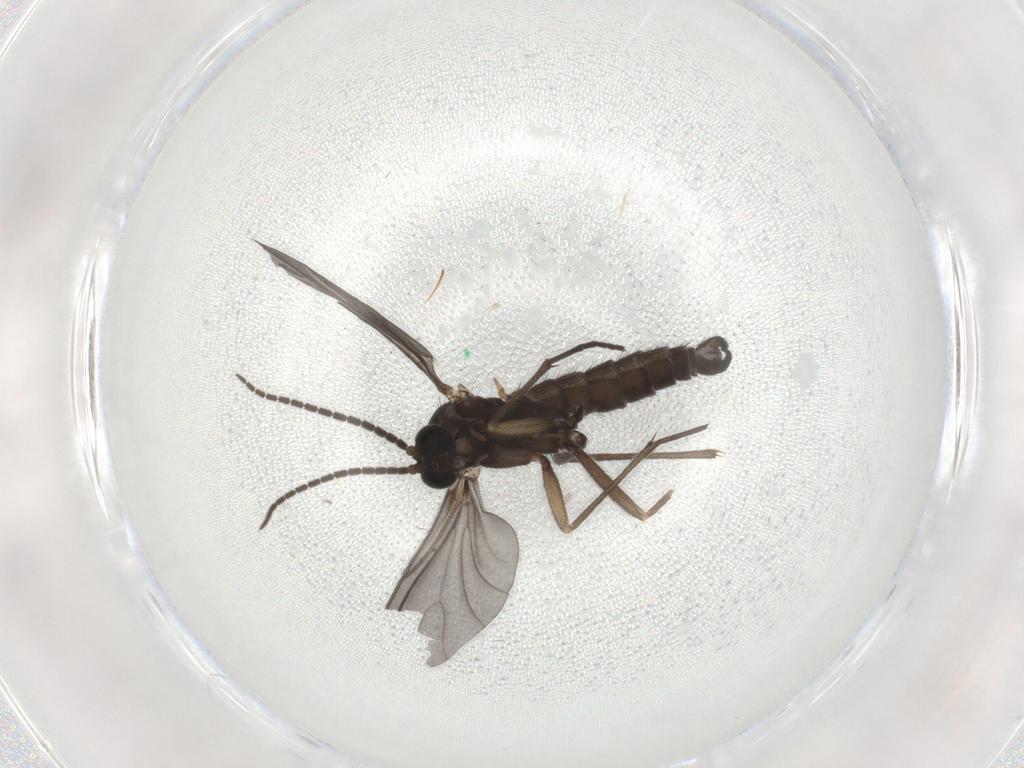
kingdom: Animalia
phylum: Arthropoda
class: Insecta
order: Diptera
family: Sciaridae
